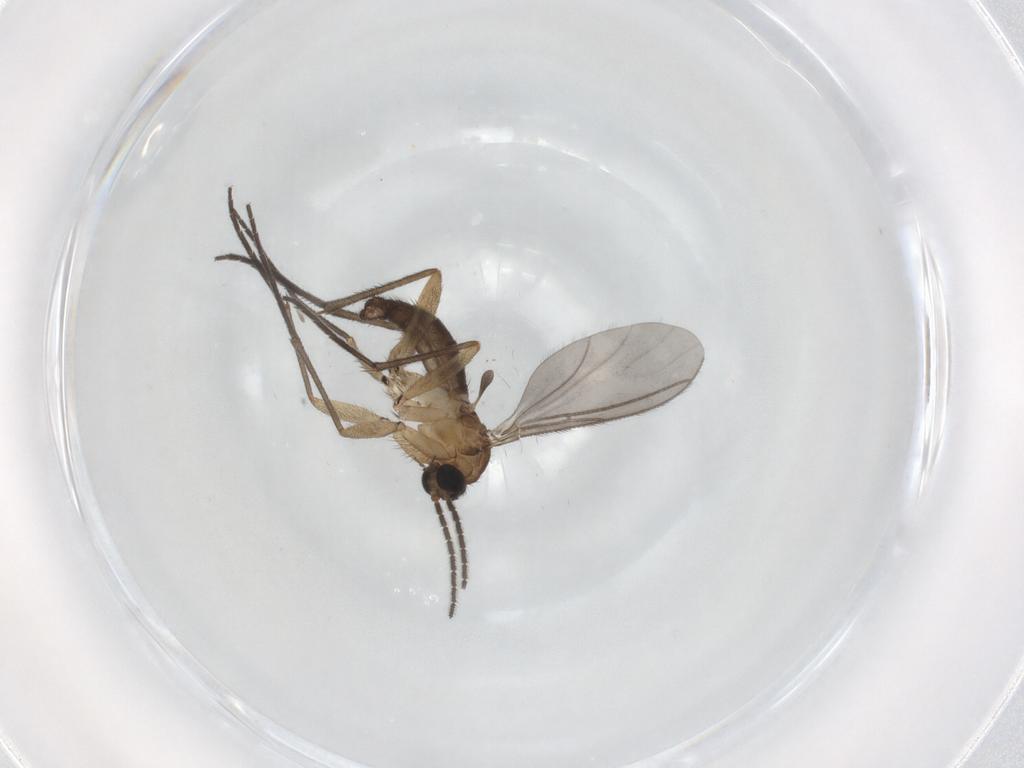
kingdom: Animalia
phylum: Arthropoda
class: Insecta
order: Diptera
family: Sciaridae
